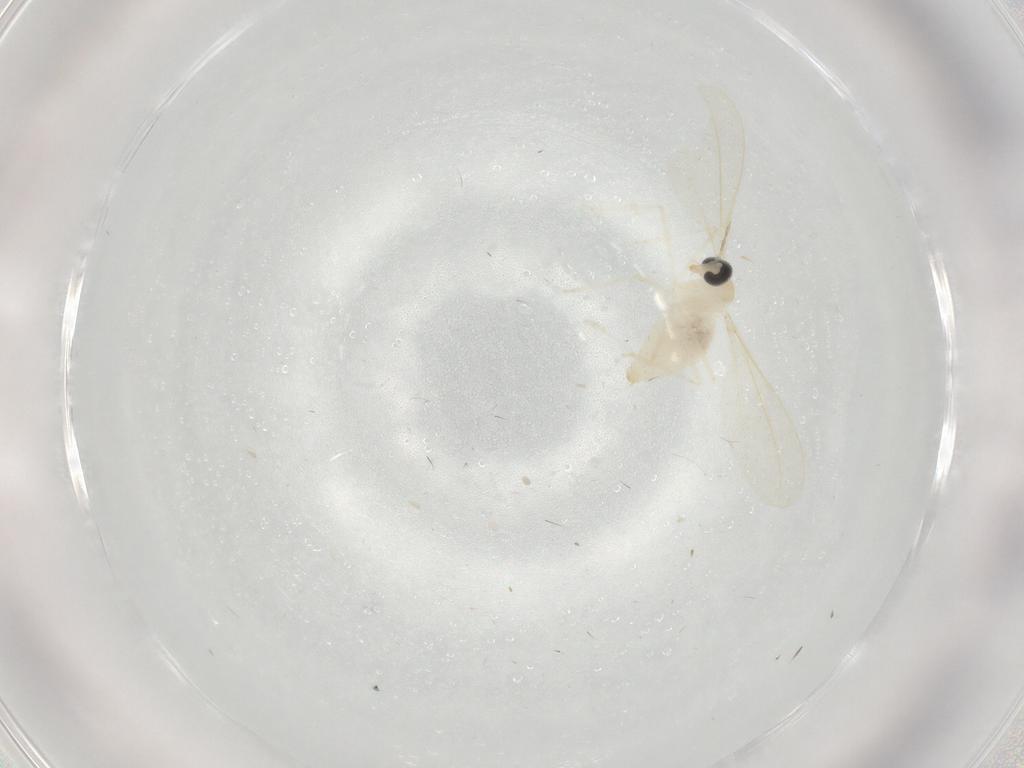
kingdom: Animalia
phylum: Arthropoda
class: Insecta
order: Diptera
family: Cecidomyiidae
